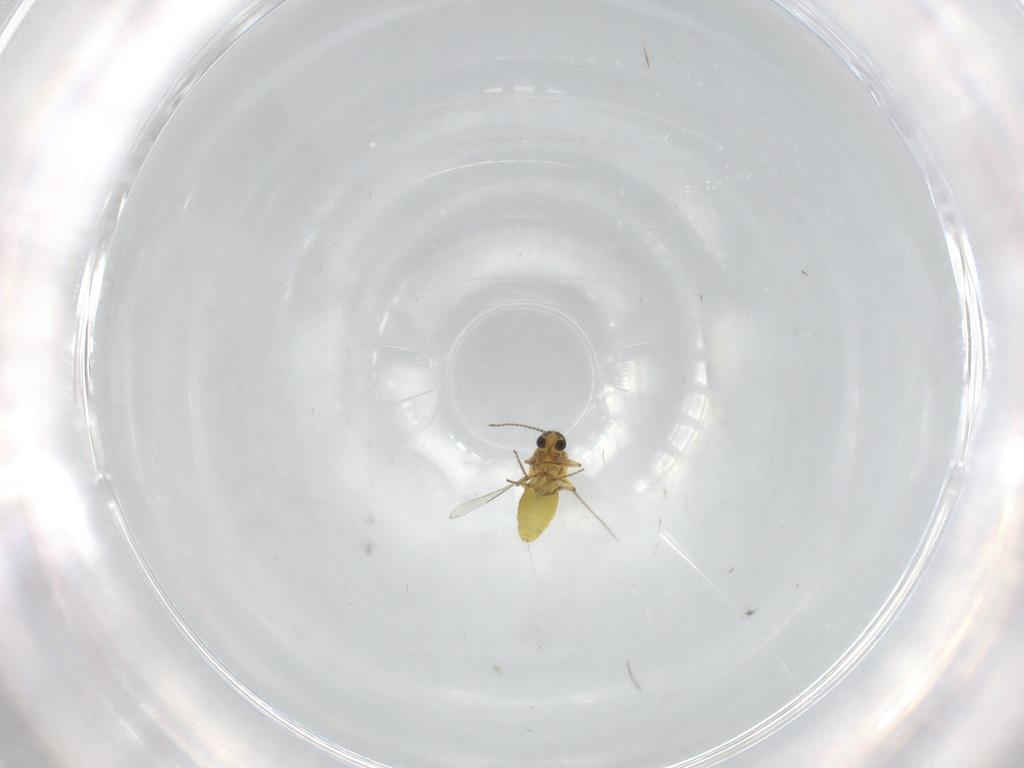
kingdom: Animalia
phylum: Arthropoda
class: Insecta
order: Diptera
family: Ceratopogonidae
